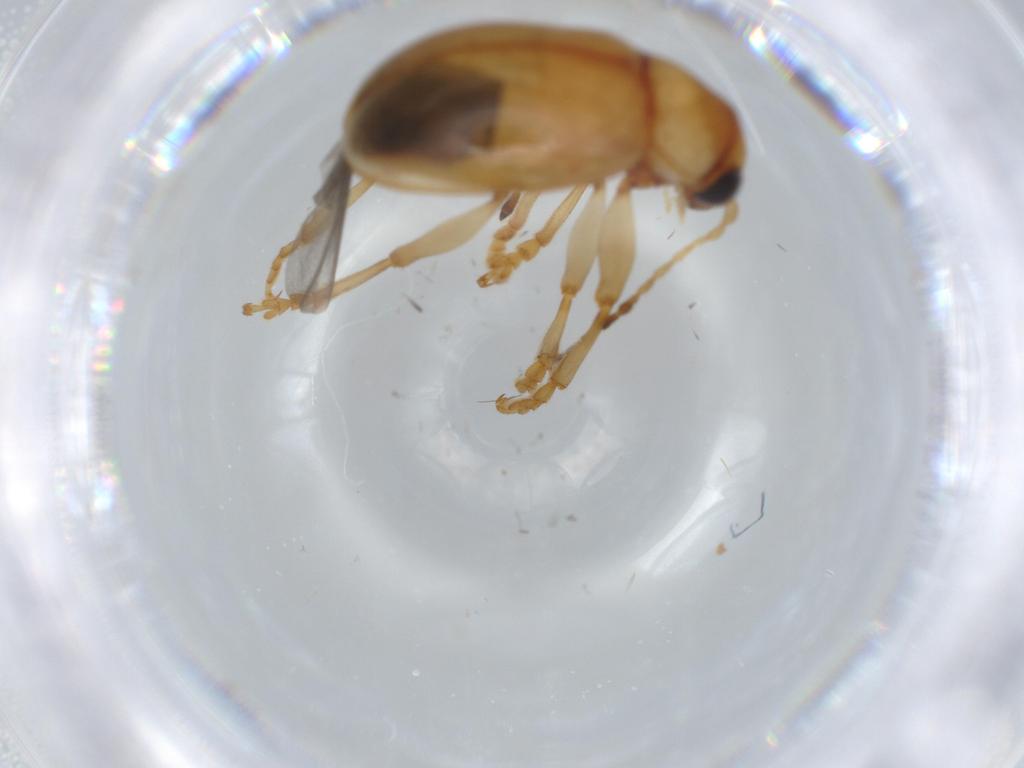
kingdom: Animalia
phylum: Arthropoda
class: Insecta
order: Coleoptera
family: Chrysomelidae
